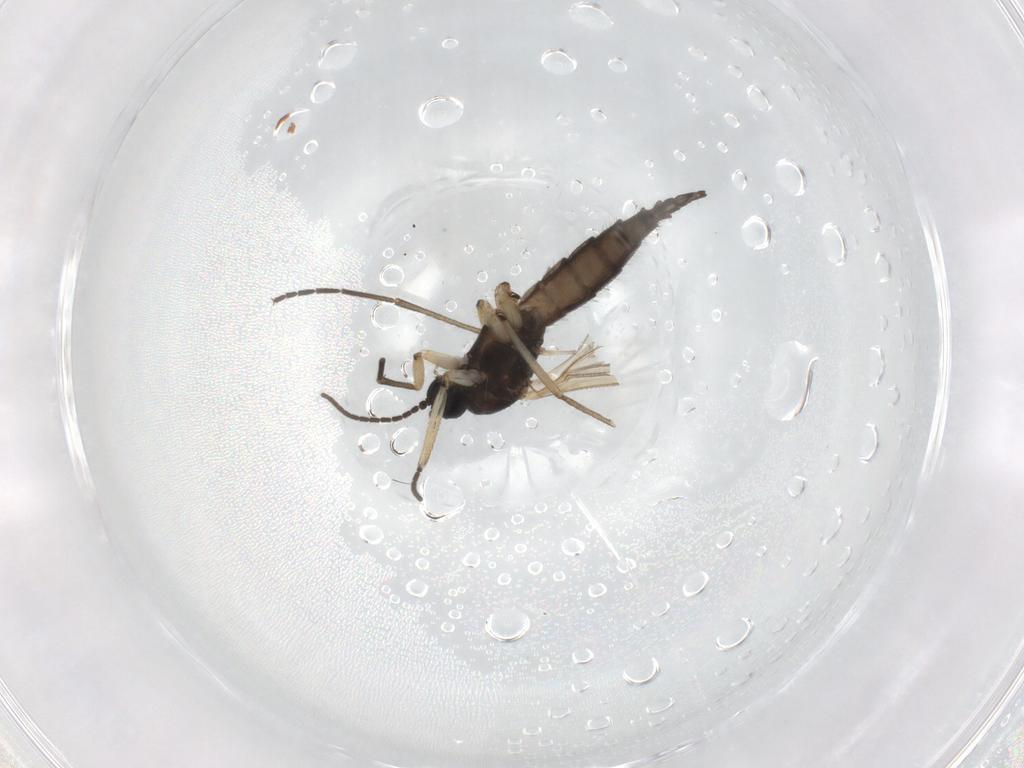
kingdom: Animalia
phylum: Arthropoda
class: Insecta
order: Diptera
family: Sciaridae
